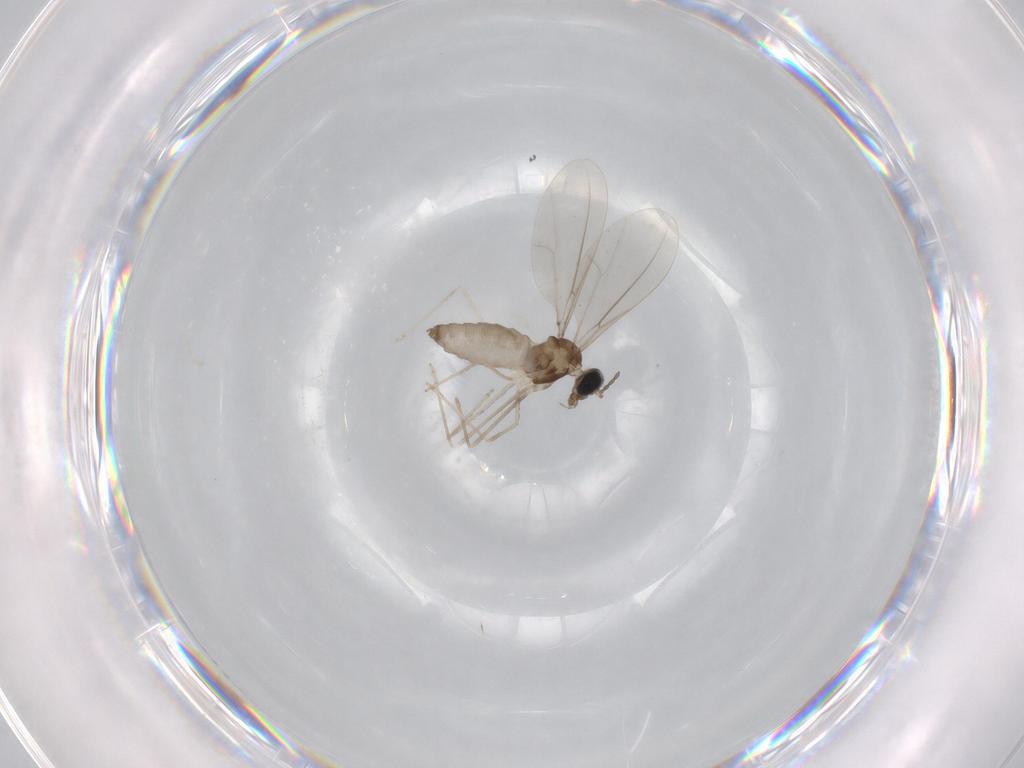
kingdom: Animalia
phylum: Arthropoda
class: Insecta
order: Diptera
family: Cecidomyiidae
